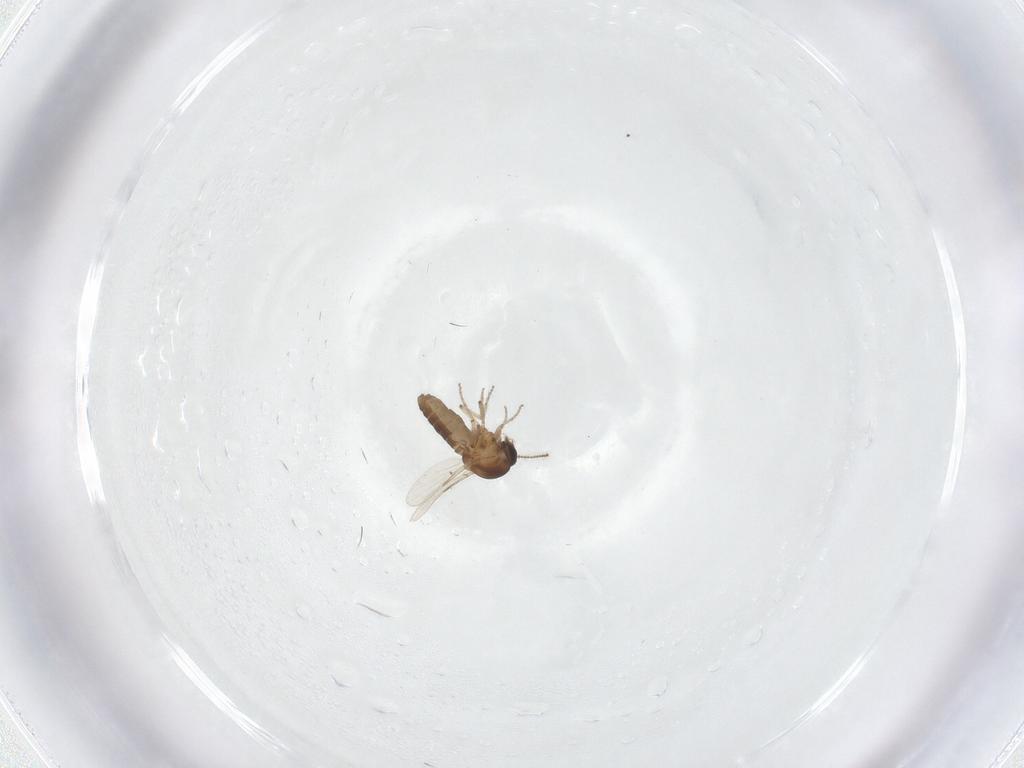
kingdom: Animalia
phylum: Arthropoda
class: Insecta
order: Diptera
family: Ceratopogonidae
